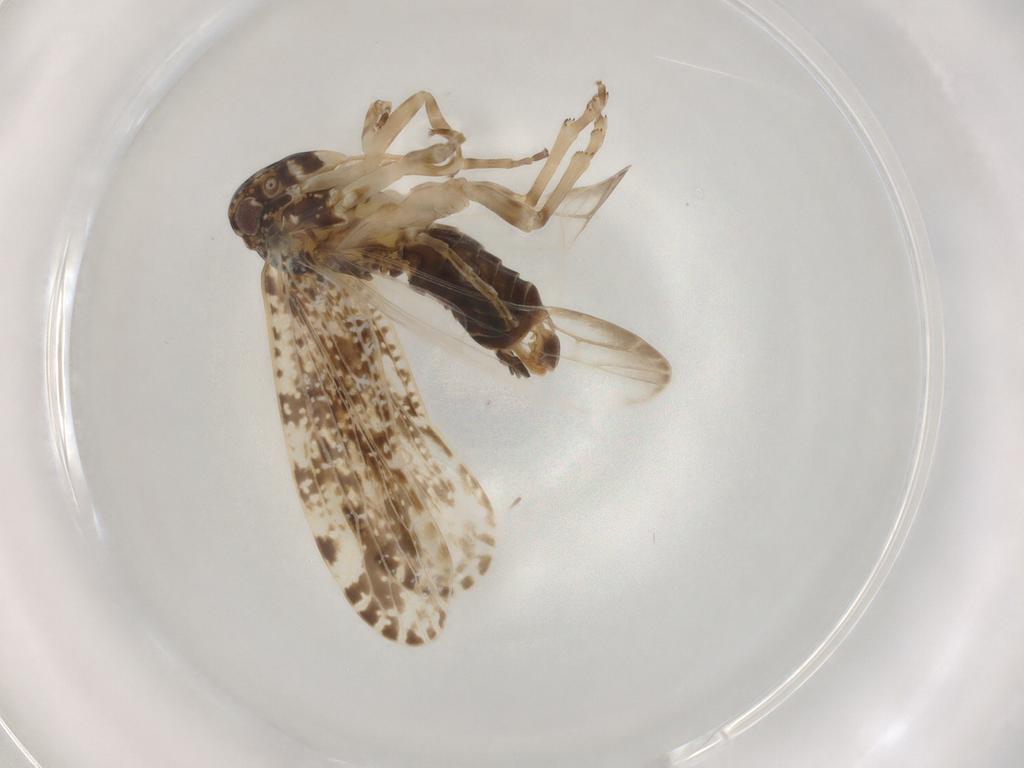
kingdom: Animalia
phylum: Arthropoda
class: Insecta
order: Hemiptera
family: Achilidae
